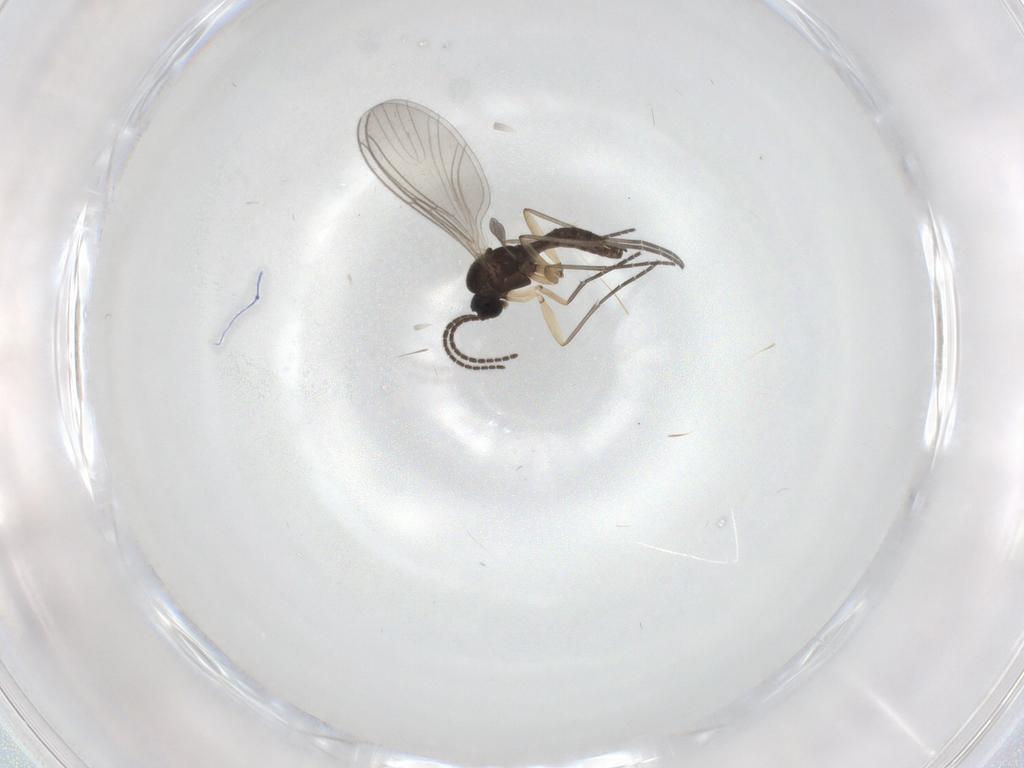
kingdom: Animalia
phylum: Arthropoda
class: Insecta
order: Diptera
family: Sciaridae
